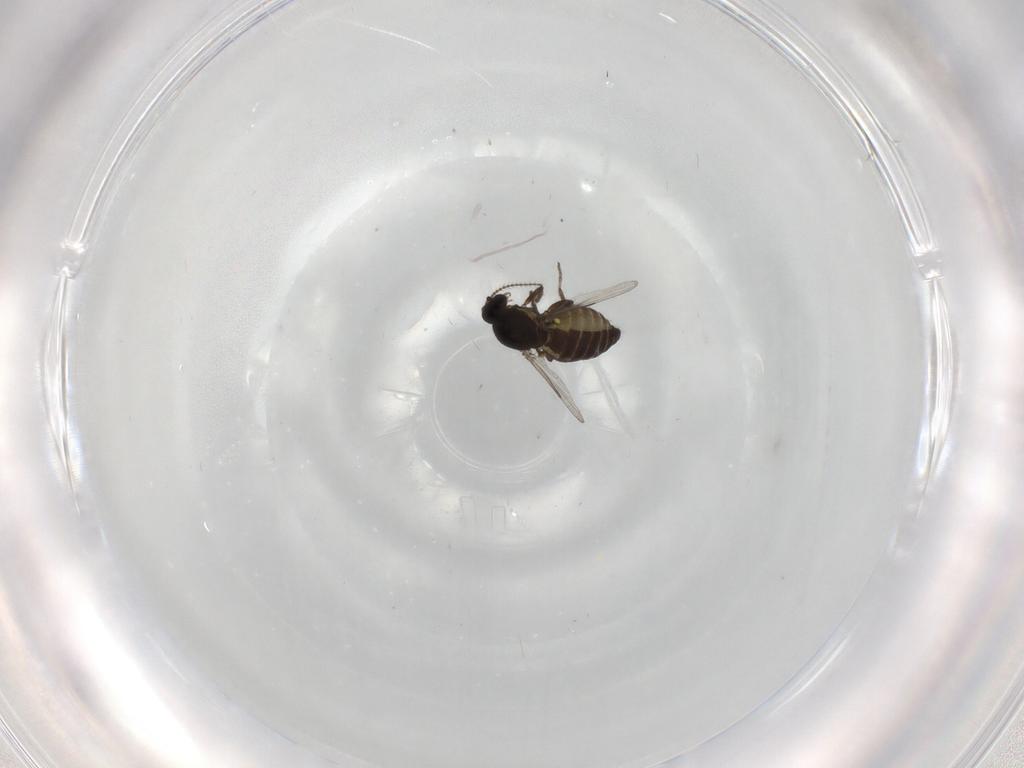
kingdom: Animalia
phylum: Arthropoda
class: Insecta
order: Diptera
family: Ceratopogonidae
